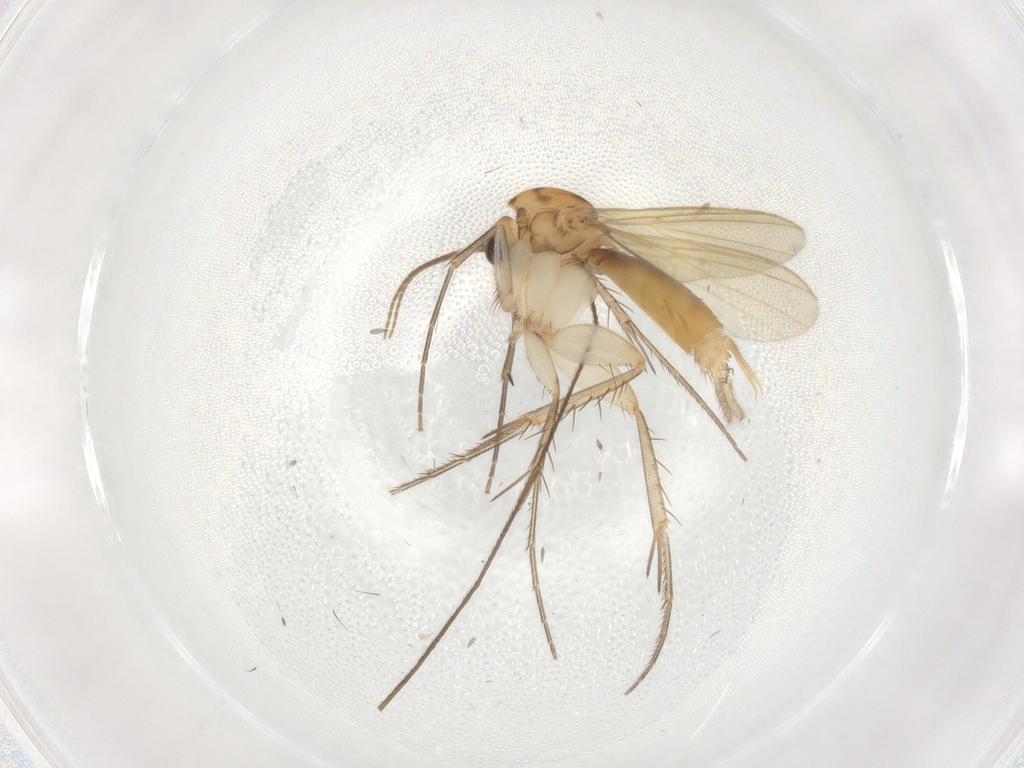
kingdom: Animalia
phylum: Arthropoda
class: Insecta
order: Diptera
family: Mycetophilidae
